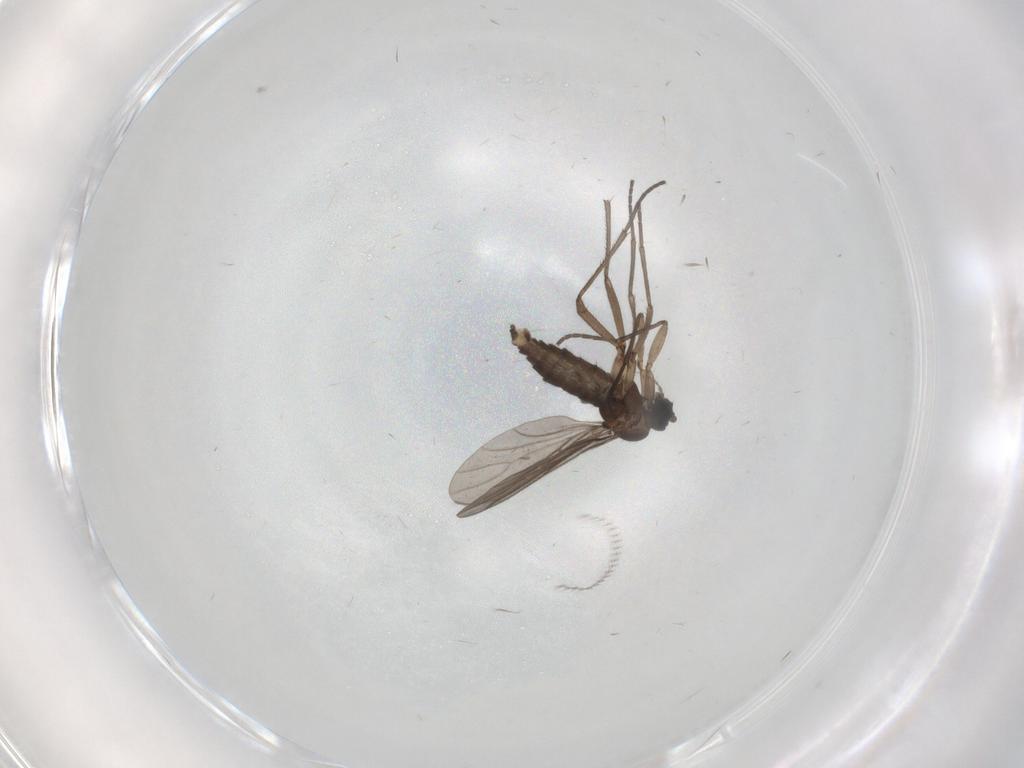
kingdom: Animalia
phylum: Arthropoda
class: Insecta
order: Diptera
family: Sciaridae
